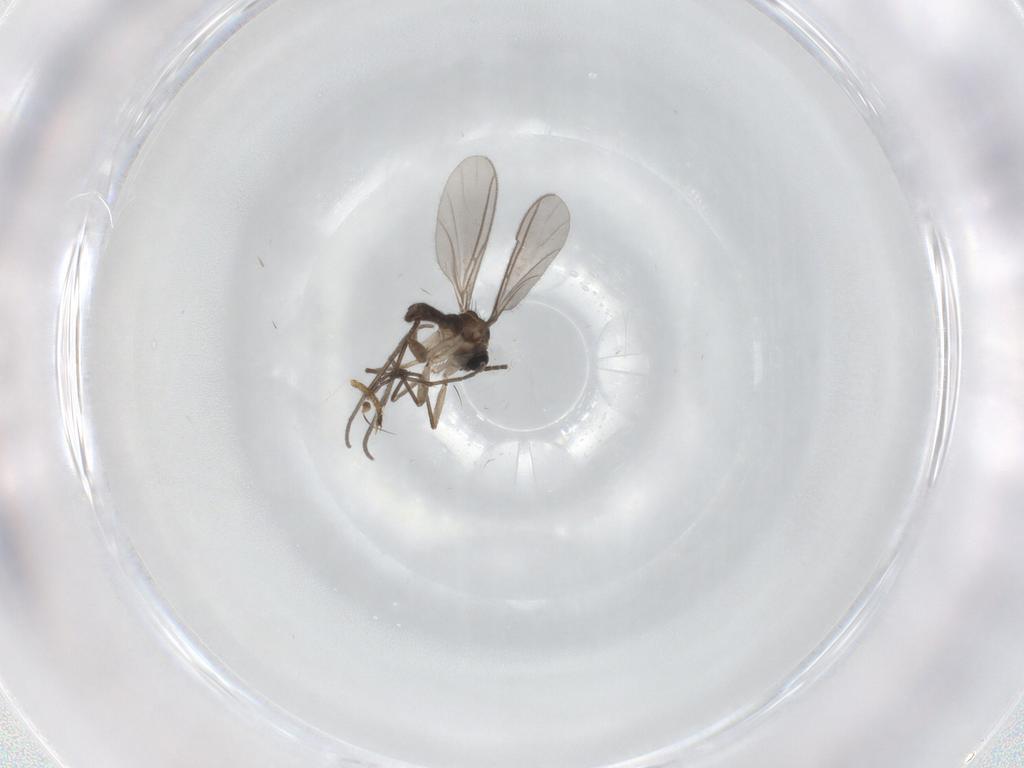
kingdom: Animalia
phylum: Arthropoda
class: Insecta
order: Diptera
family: Sciaridae
